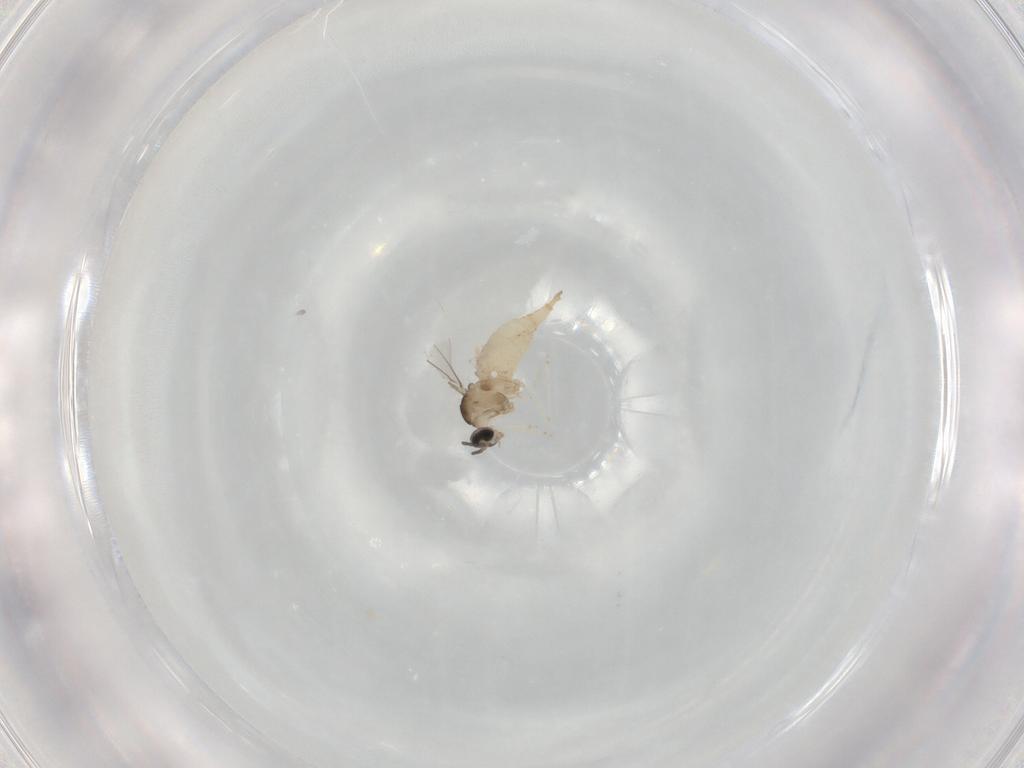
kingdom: Animalia
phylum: Arthropoda
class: Insecta
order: Diptera
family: Cecidomyiidae
